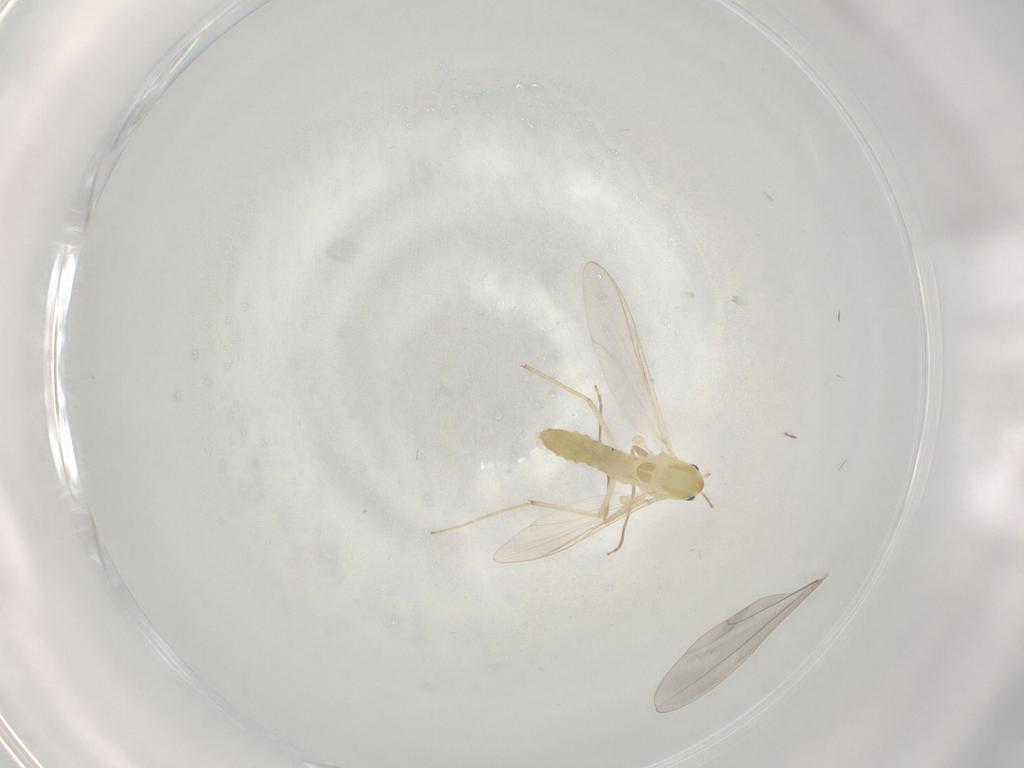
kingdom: Animalia
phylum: Arthropoda
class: Insecta
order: Diptera
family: Chironomidae
